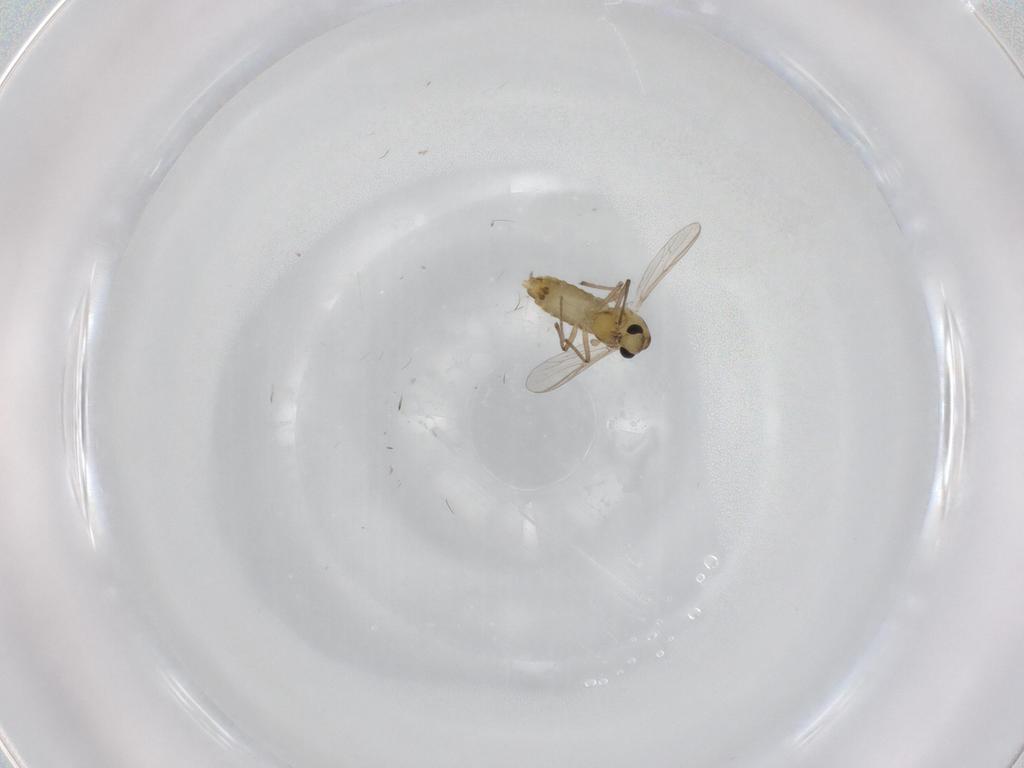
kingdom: Animalia
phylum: Arthropoda
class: Insecta
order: Diptera
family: Chironomidae
